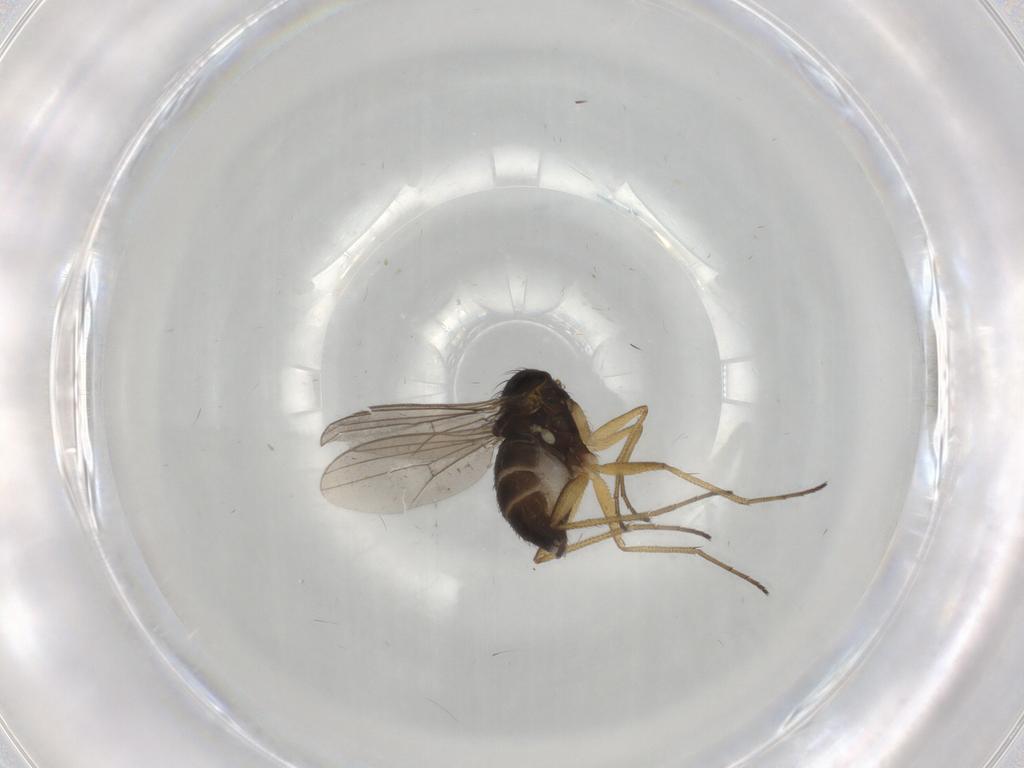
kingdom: Animalia
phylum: Arthropoda
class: Insecta
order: Diptera
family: Dolichopodidae
